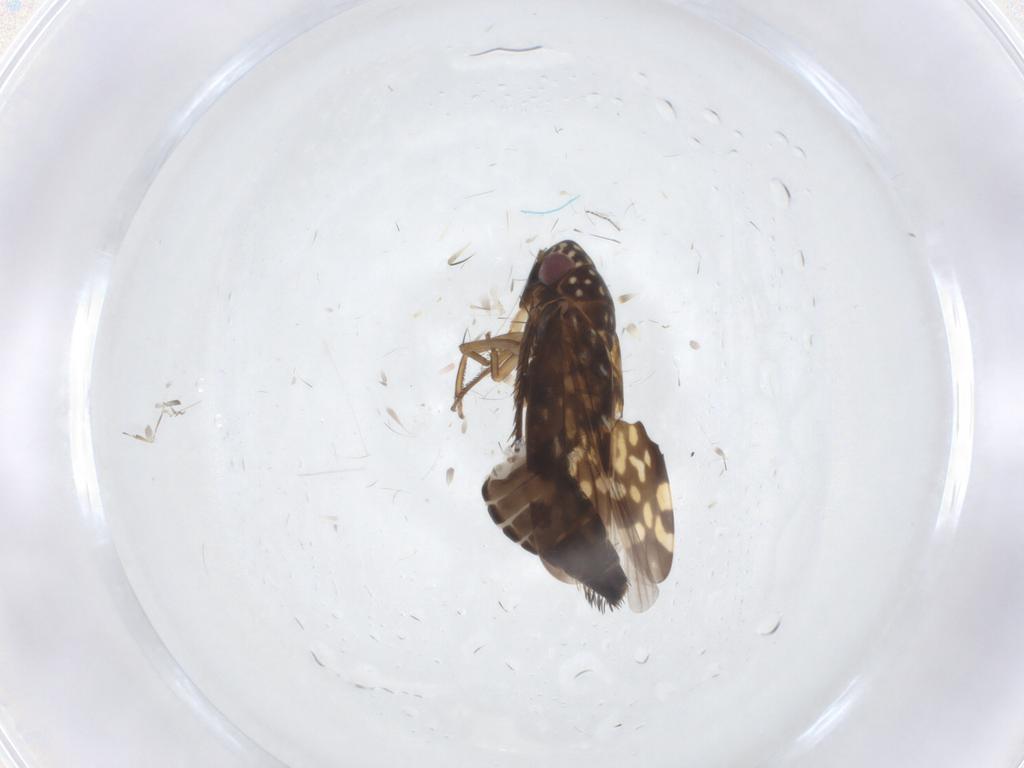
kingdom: Animalia
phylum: Arthropoda
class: Insecta
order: Hemiptera
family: Cicadellidae
